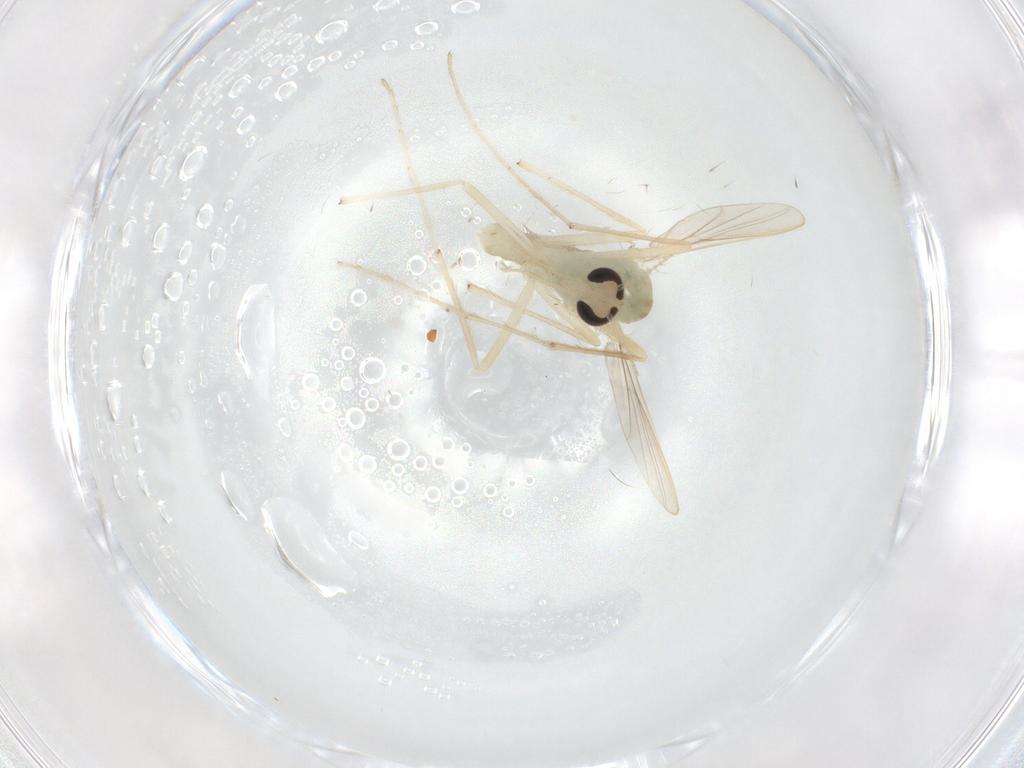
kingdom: Animalia
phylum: Arthropoda
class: Insecta
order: Diptera
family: Chironomidae
